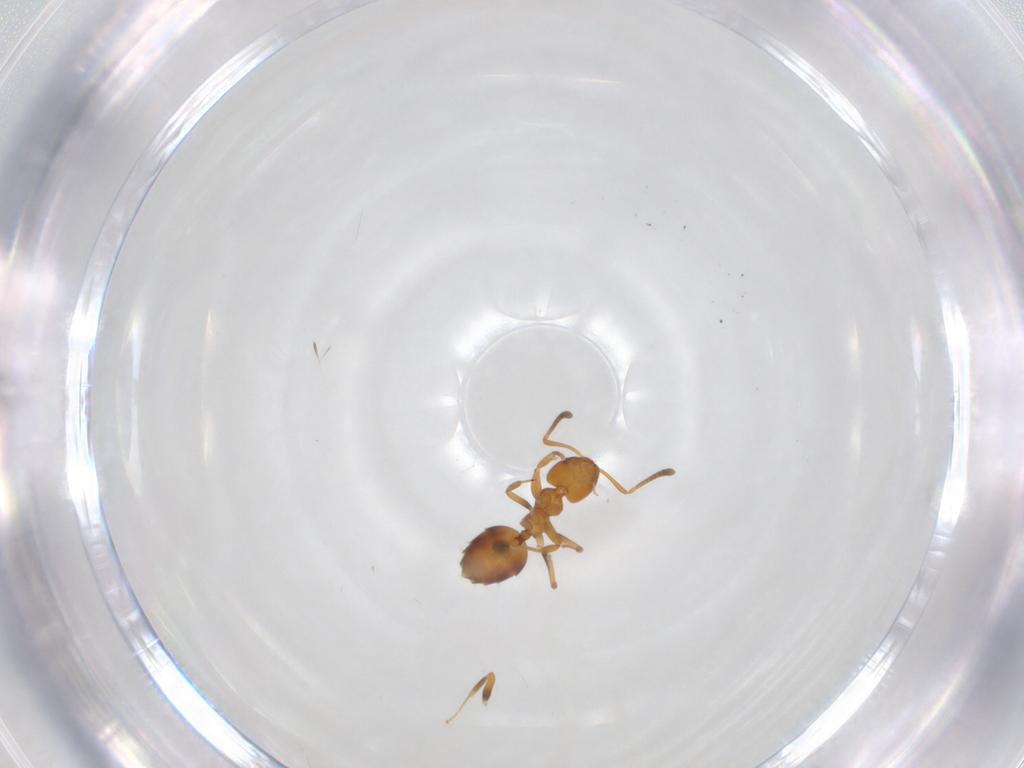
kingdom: Animalia
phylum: Arthropoda
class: Insecta
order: Hymenoptera
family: Formicidae
